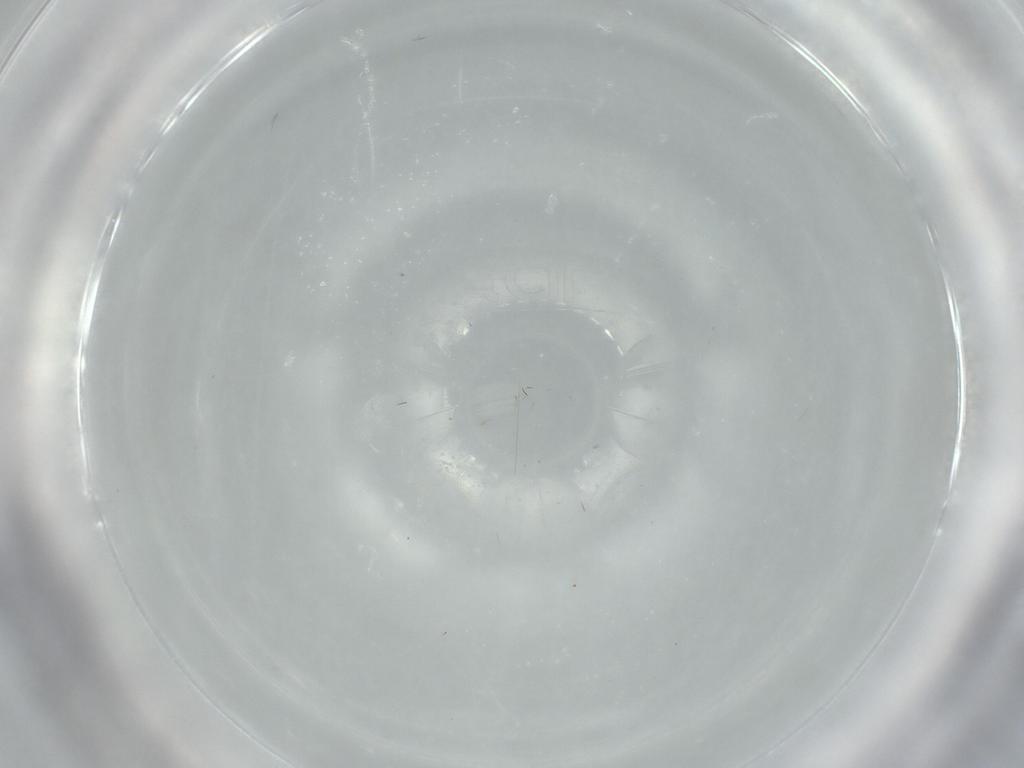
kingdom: Animalia
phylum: Arthropoda
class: Insecta
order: Diptera
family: Chironomidae
